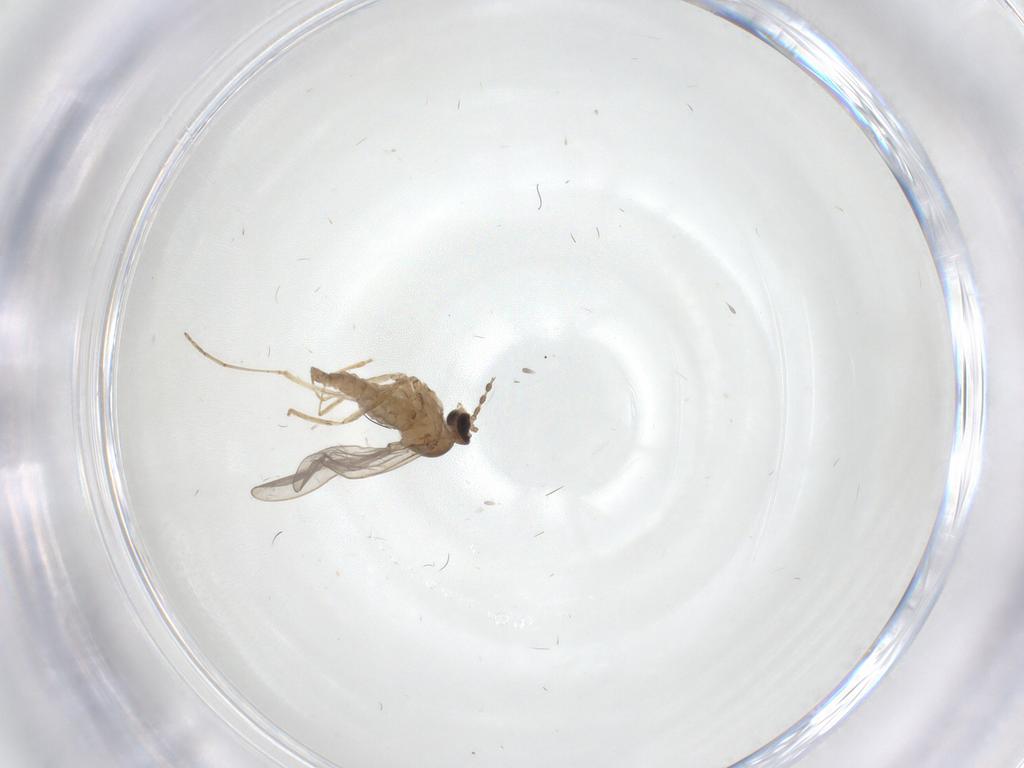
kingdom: Animalia
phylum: Arthropoda
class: Insecta
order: Diptera
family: Cecidomyiidae
